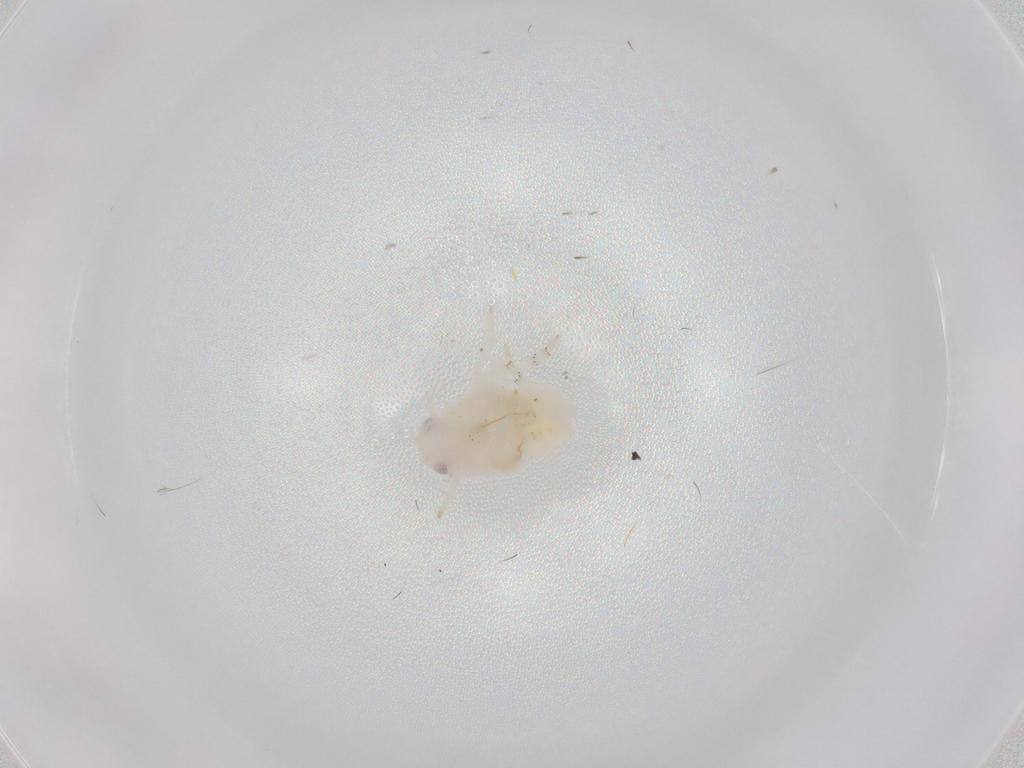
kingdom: Animalia
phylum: Arthropoda
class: Insecta
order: Hemiptera
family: Flatidae
